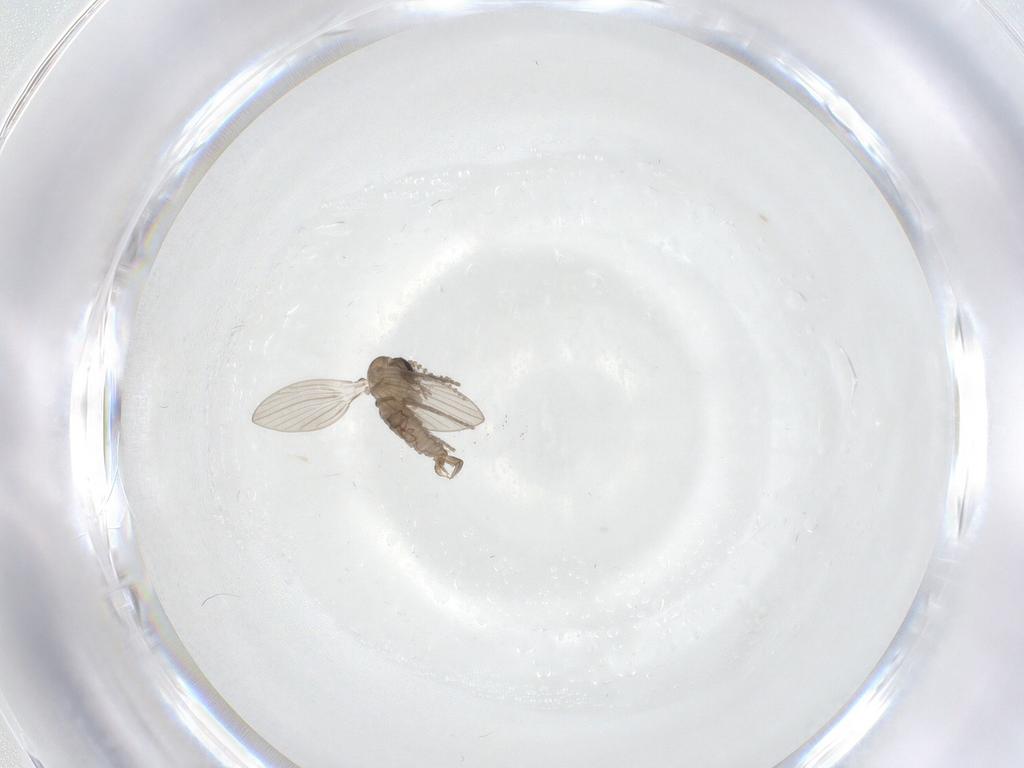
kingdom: Animalia
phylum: Arthropoda
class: Insecta
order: Diptera
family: Psychodidae
